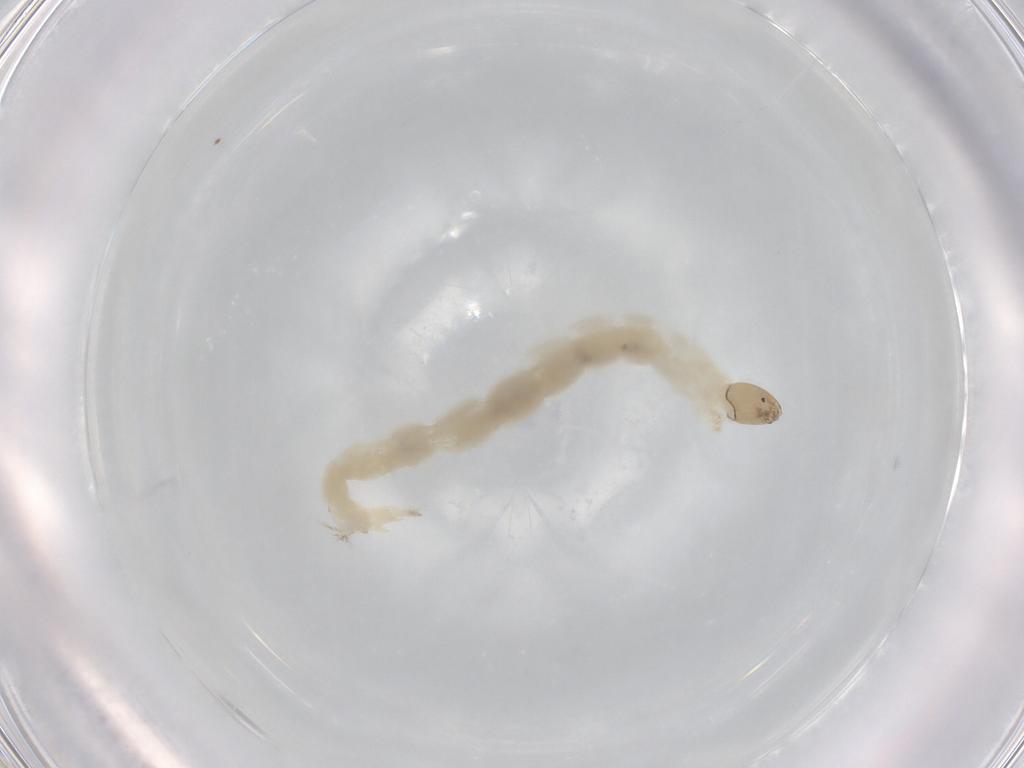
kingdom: Animalia
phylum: Arthropoda
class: Insecta
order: Diptera
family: Chironomidae
